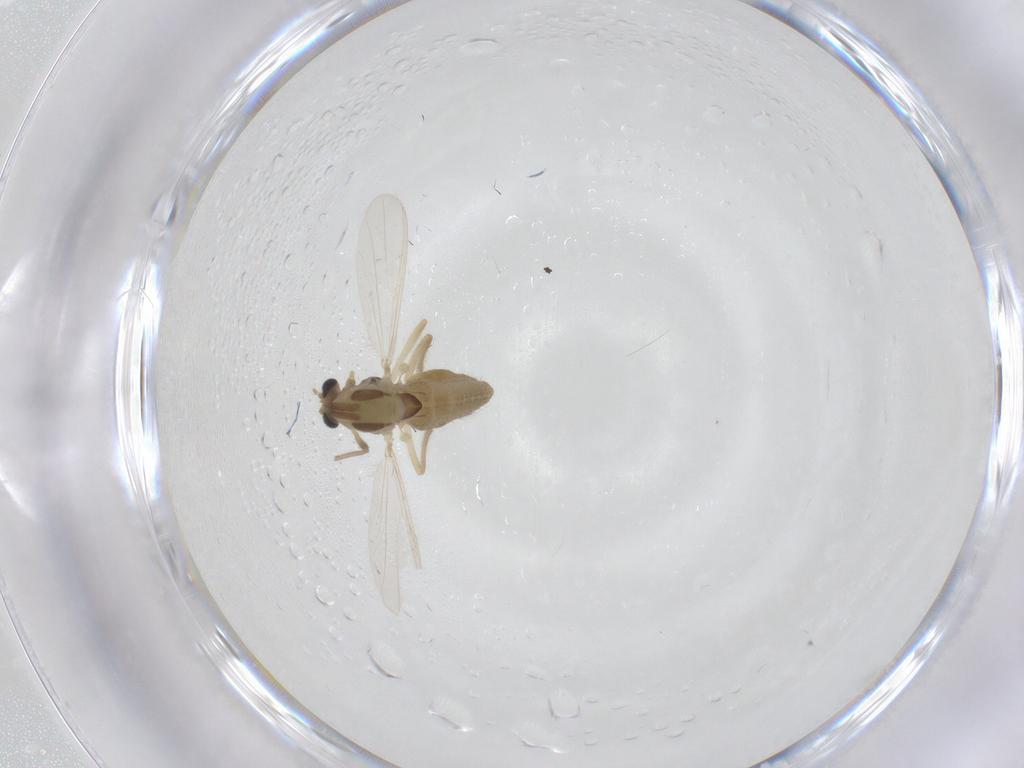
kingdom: Animalia
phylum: Arthropoda
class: Insecta
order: Diptera
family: Chironomidae
